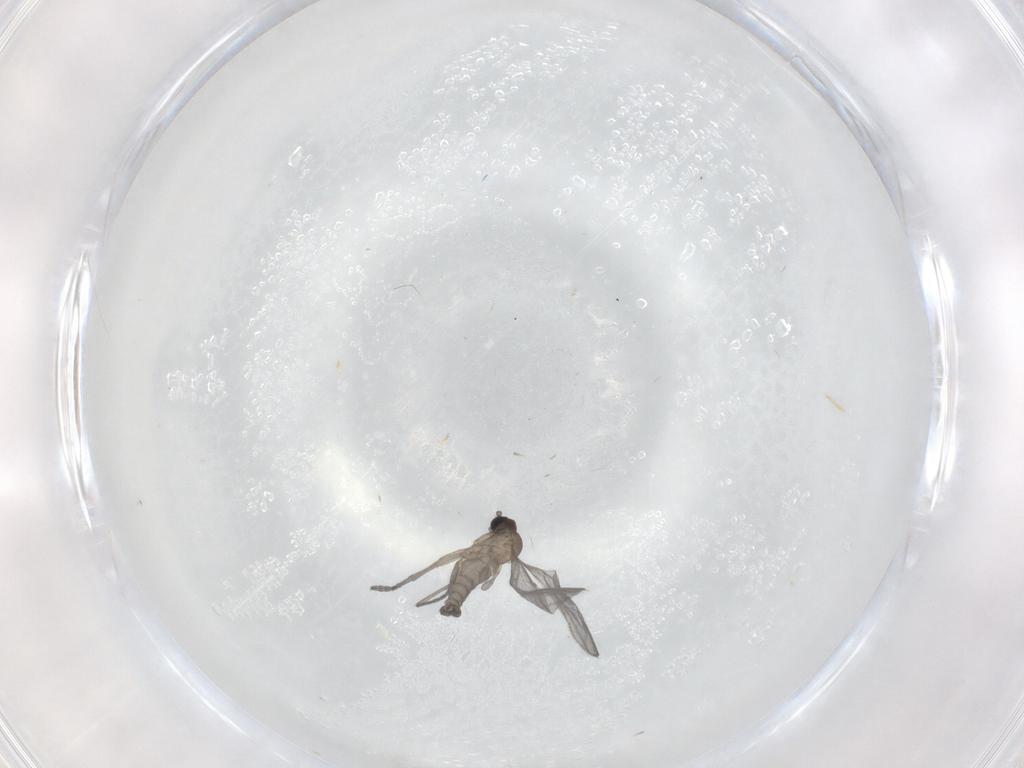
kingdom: Animalia
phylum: Arthropoda
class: Insecta
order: Diptera
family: Sciaridae
